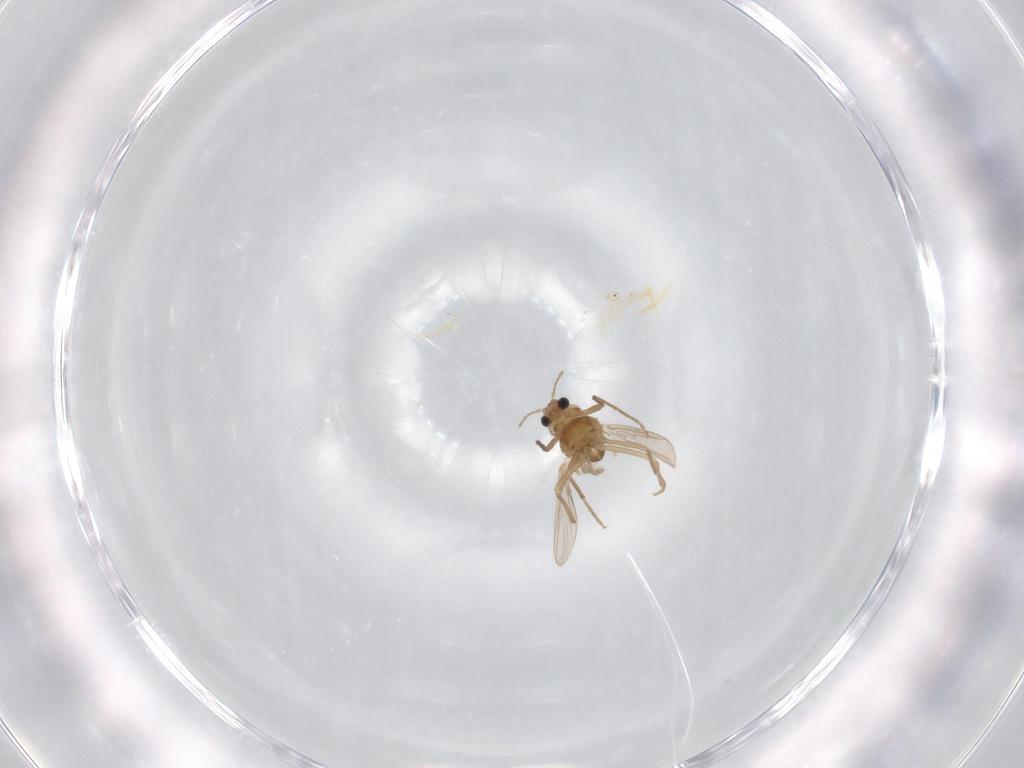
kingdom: Animalia
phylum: Arthropoda
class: Insecta
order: Diptera
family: Chironomidae
